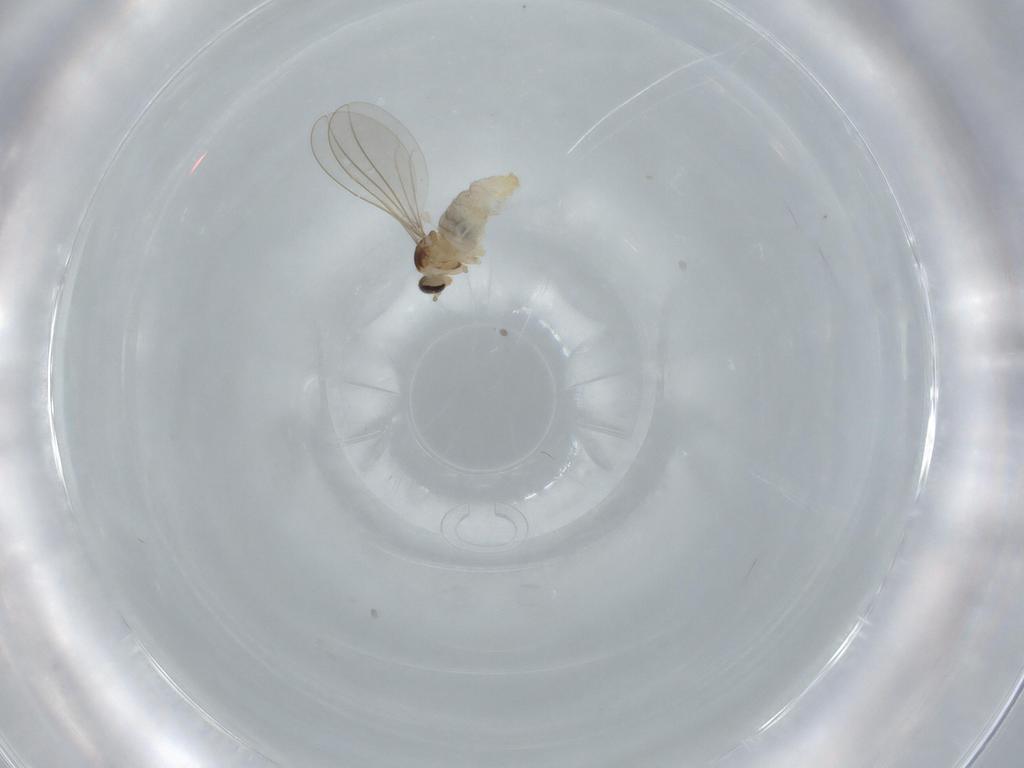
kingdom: Animalia
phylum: Arthropoda
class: Insecta
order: Diptera
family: Cecidomyiidae
